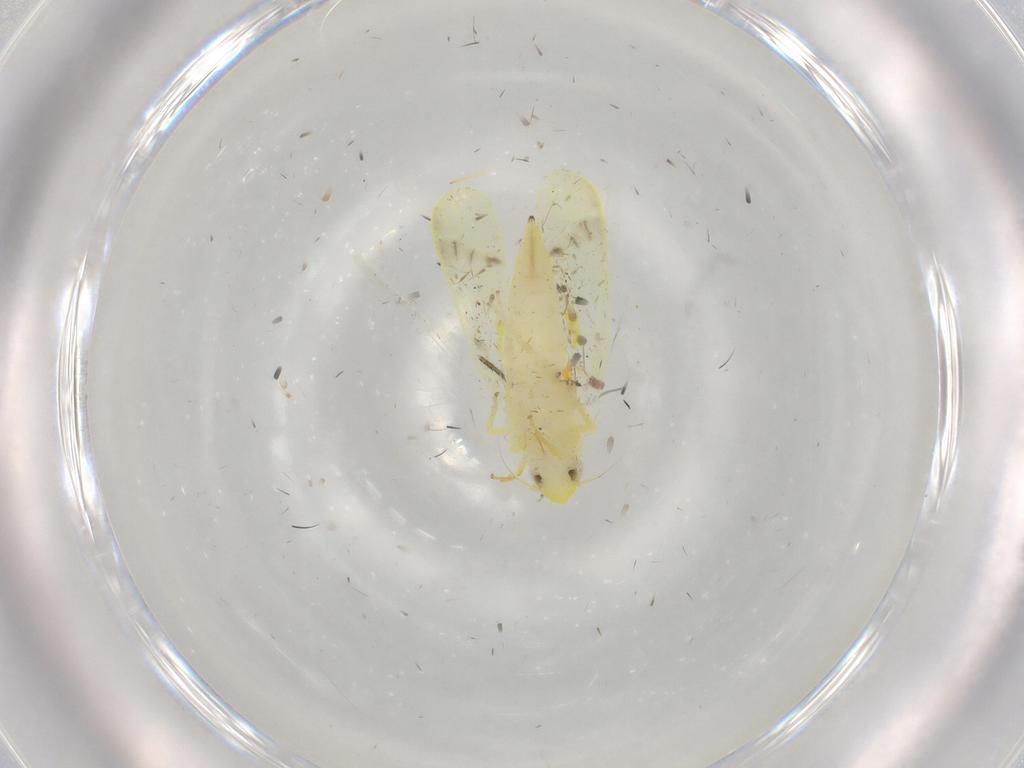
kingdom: Animalia
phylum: Arthropoda
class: Insecta
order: Hemiptera
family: Cicadellidae
